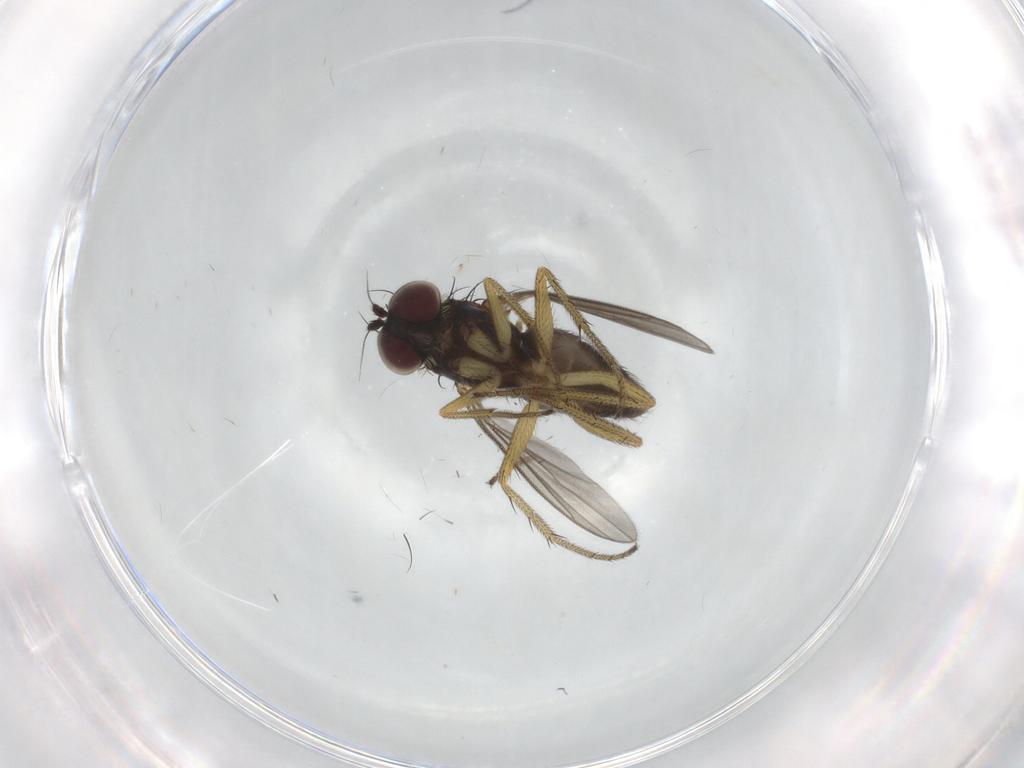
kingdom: Animalia
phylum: Arthropoda
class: Insecta
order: Diptera
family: Dolichopodidae
